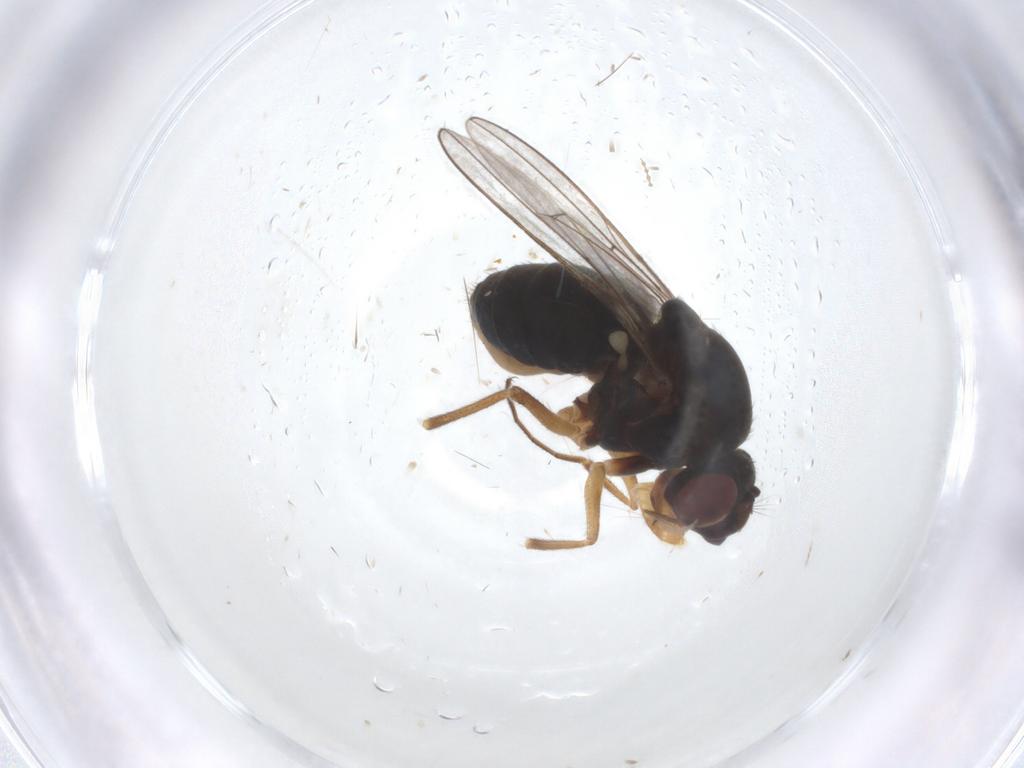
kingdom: Animalia
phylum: Arthropoda
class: Insecta
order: Diptera
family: Ephydridae
